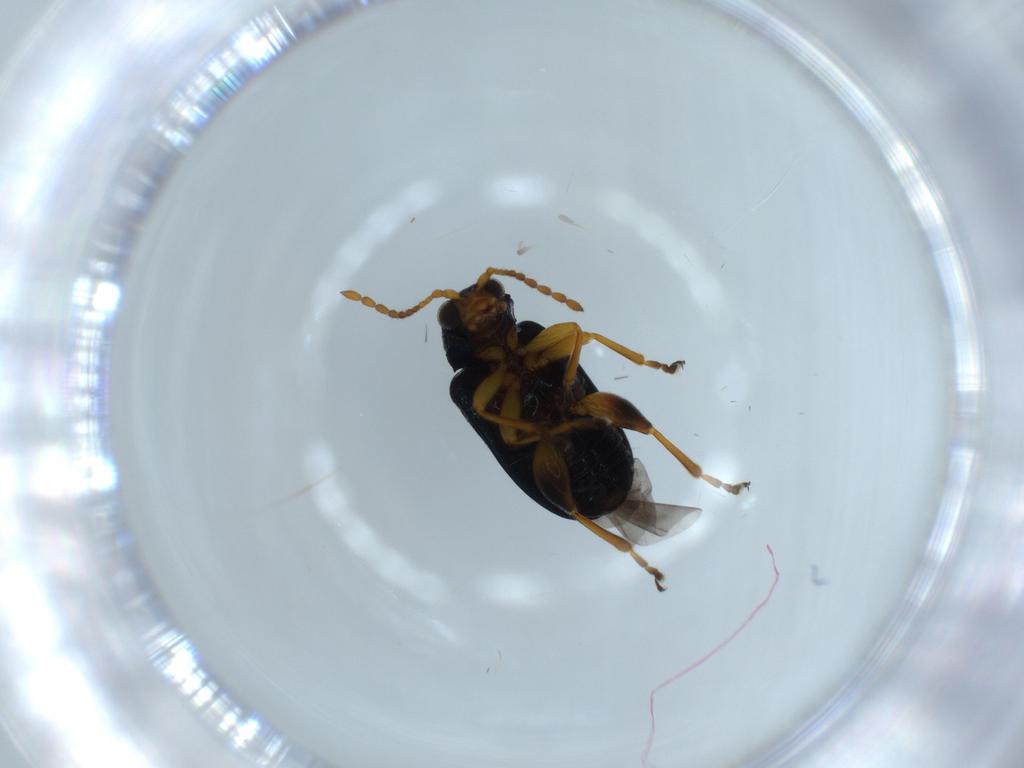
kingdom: Animalia
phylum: Arthropoda
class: Insecta
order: Coleoptera
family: Chrysomelidae
